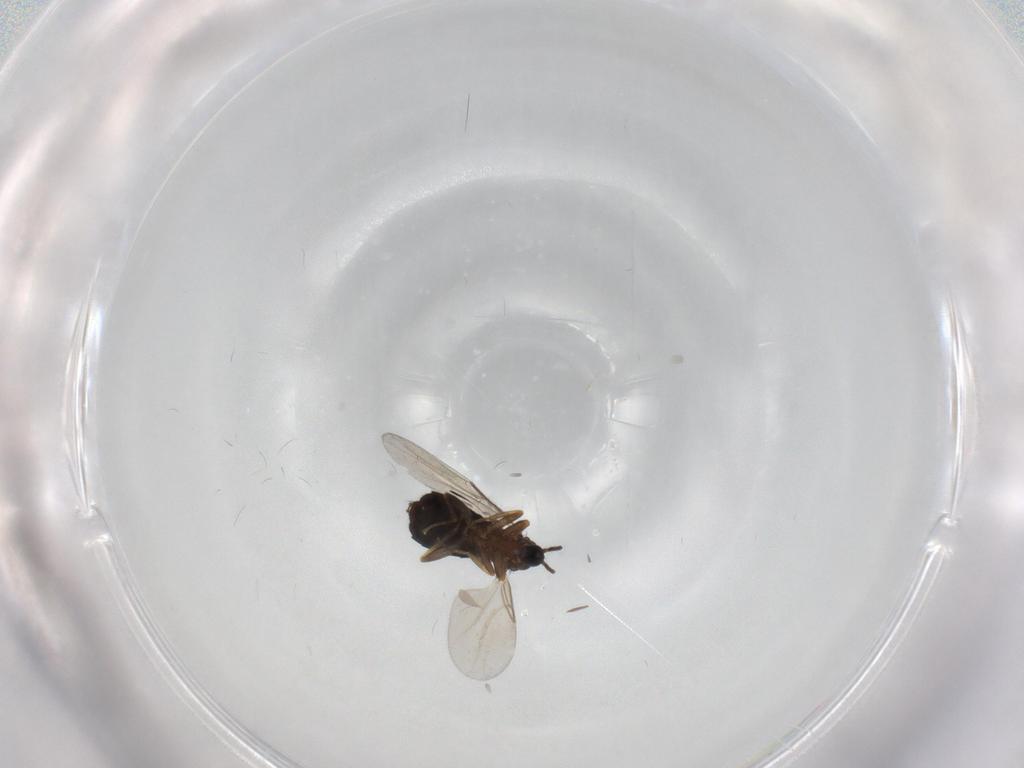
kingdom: Animalia
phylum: Arthropoda
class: Insecta
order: Diptera
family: Scatopsidae
